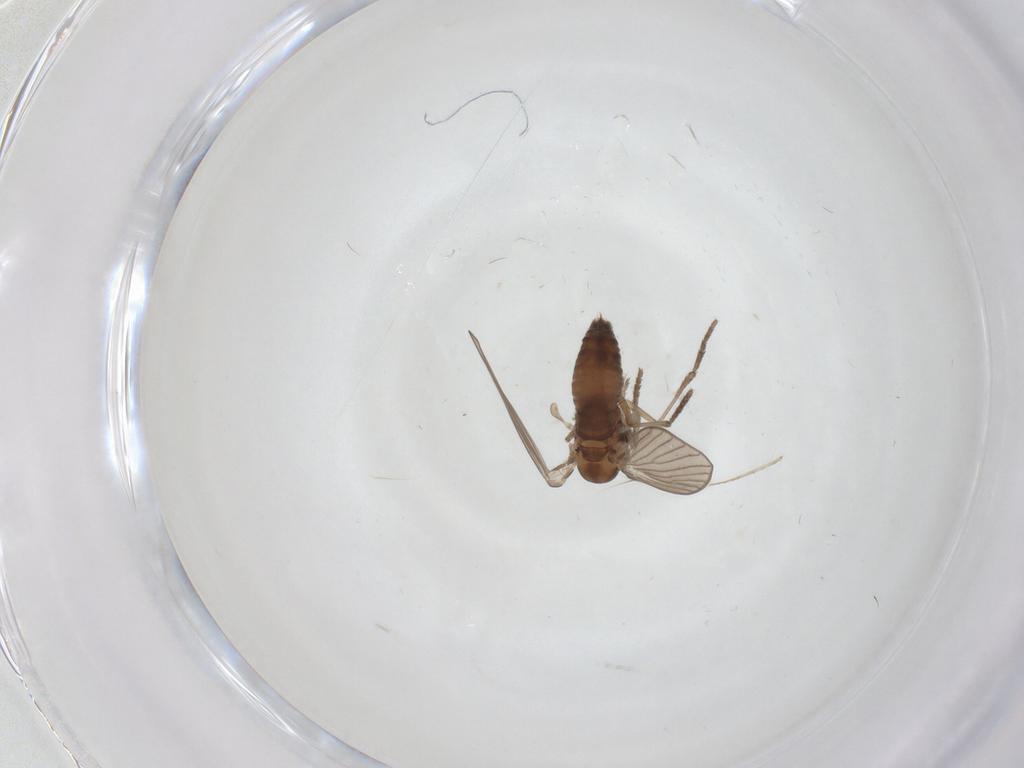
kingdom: Animalia
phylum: Arthropoda
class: Insecta
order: Diptera
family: Psychodidae
